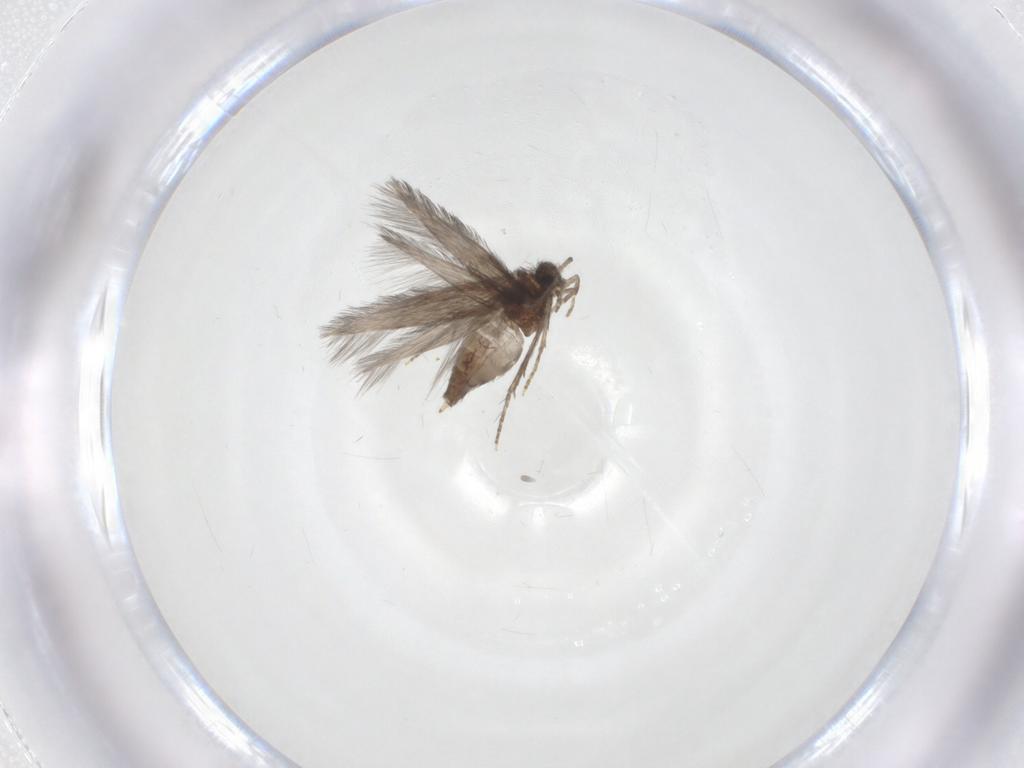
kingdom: Animalia
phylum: Arthropoda
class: Insecta
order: Trichoptera
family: Hydroptilidae
